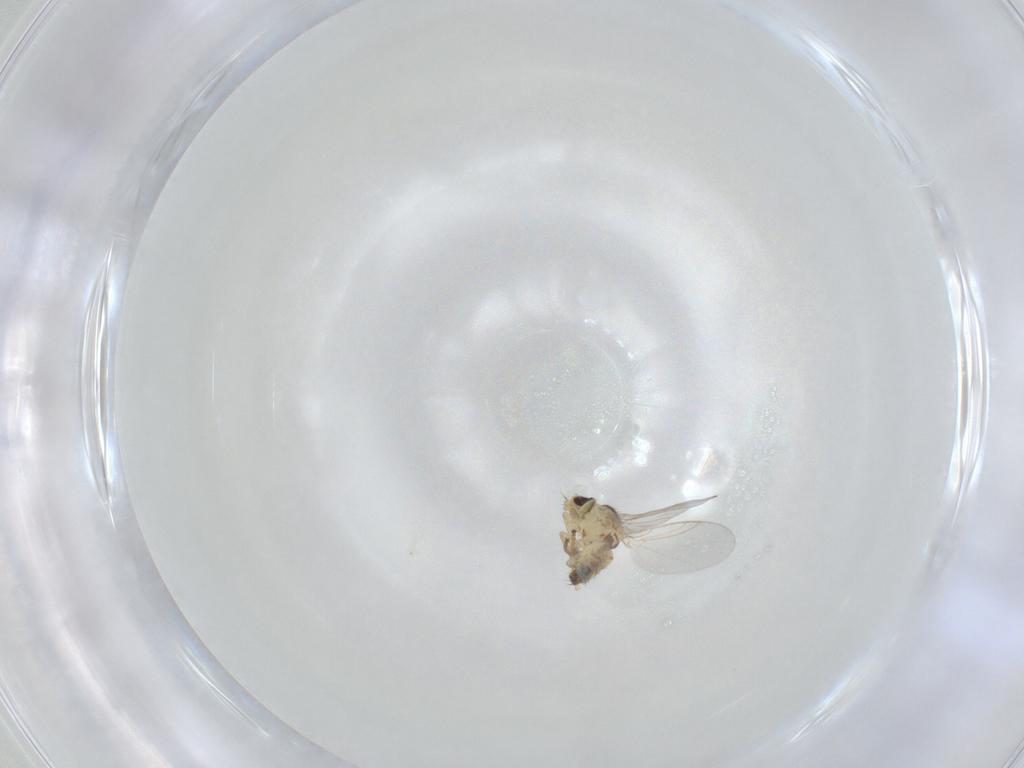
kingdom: Animalia
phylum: Arthropoda
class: Insecta
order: Diptera
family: Agromyzidae
